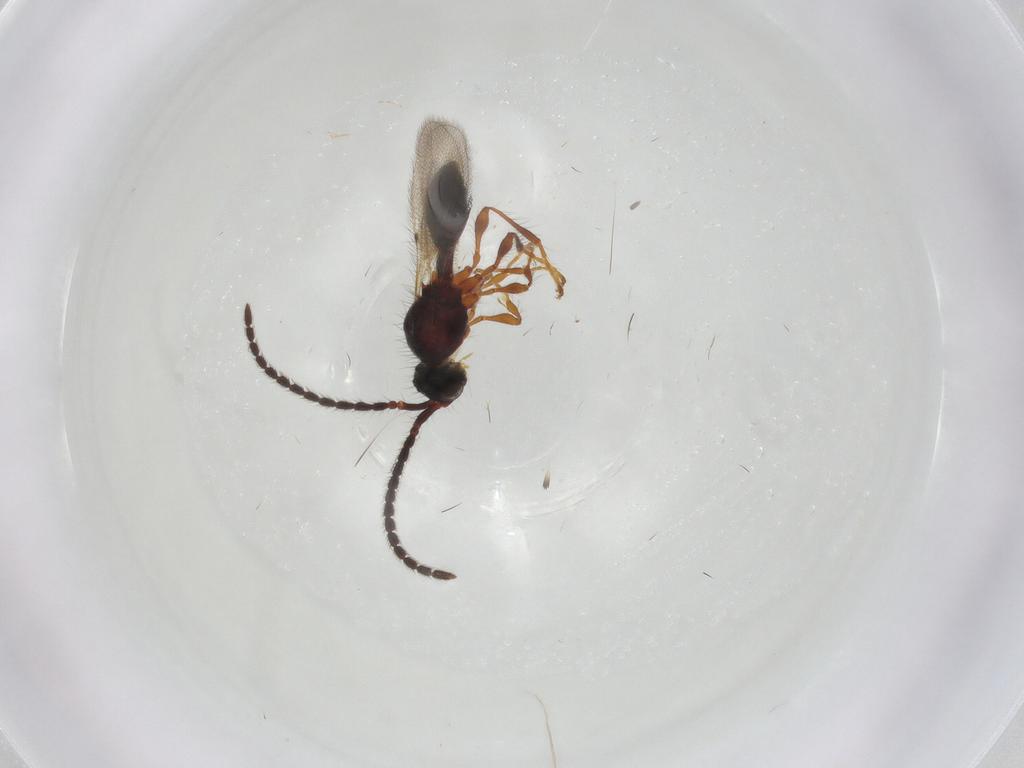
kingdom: Animalia
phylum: Arthropoda
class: Insecta
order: Hymenoptera
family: Diapriidae
